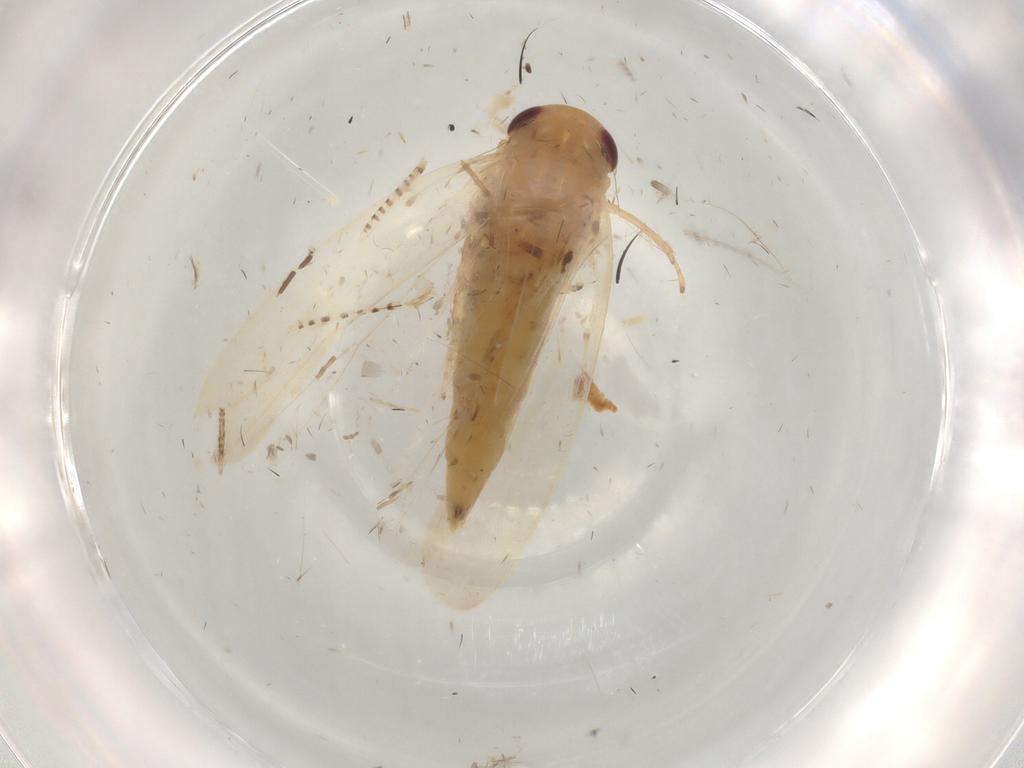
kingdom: Animalia
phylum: Arthropoda
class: Insecta
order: Hemiptera
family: Cicadellidae
